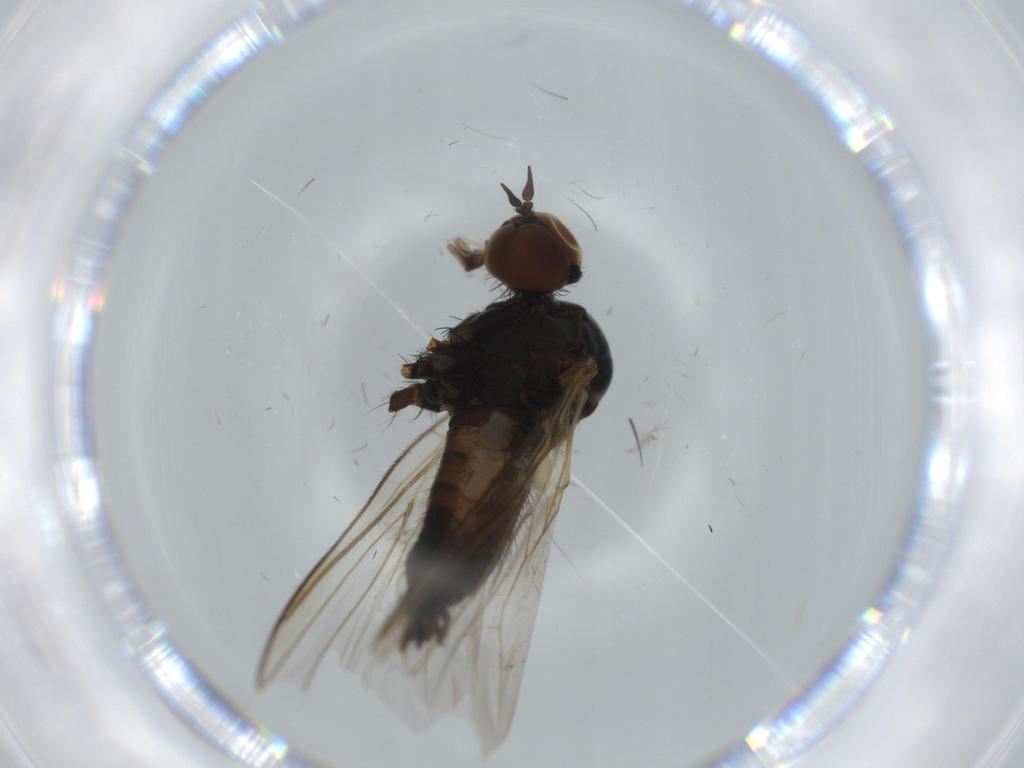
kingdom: Animalia
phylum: Arthropoda
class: Insecta
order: Diptera
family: Empididae
